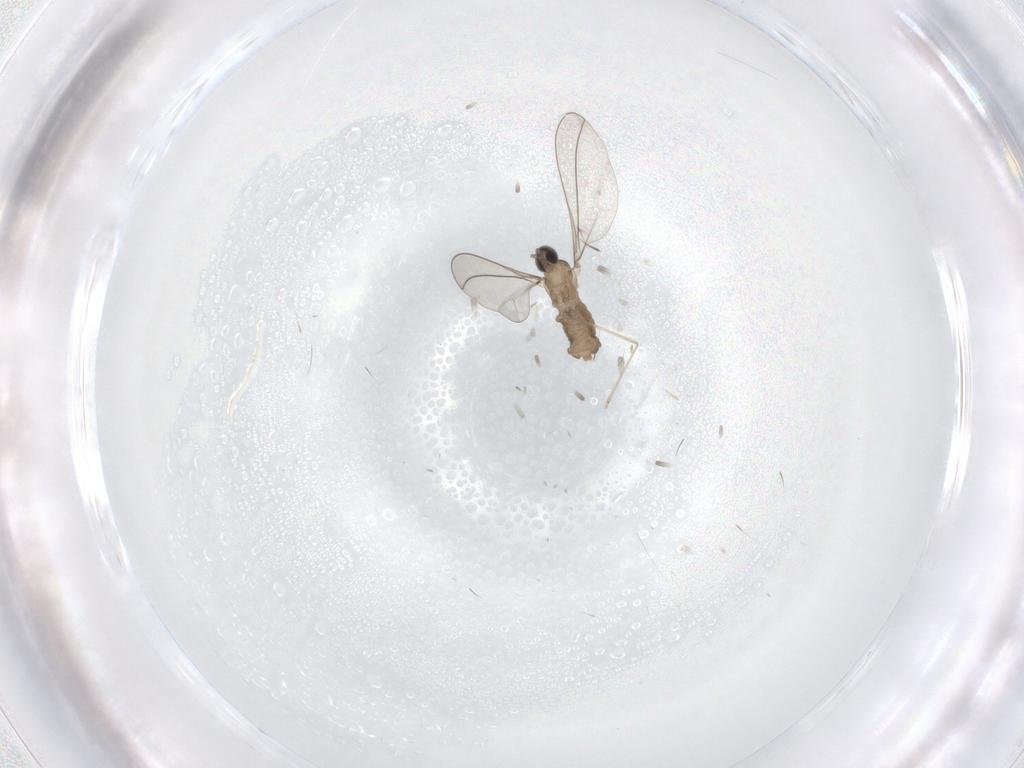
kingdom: Animalia
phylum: Arthropoda
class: Insecta
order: Diptera
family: Cecidomyiidae
